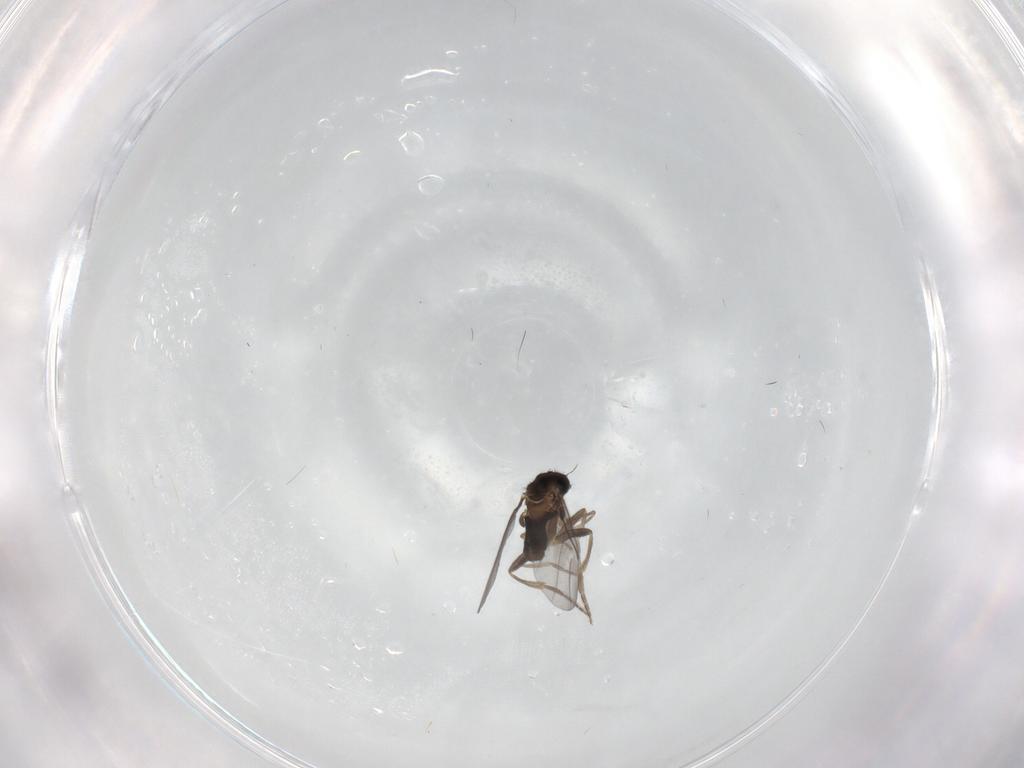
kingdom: Animalia
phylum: Arthropoda
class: Insecta
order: Diptera
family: Cecidomyiidae
